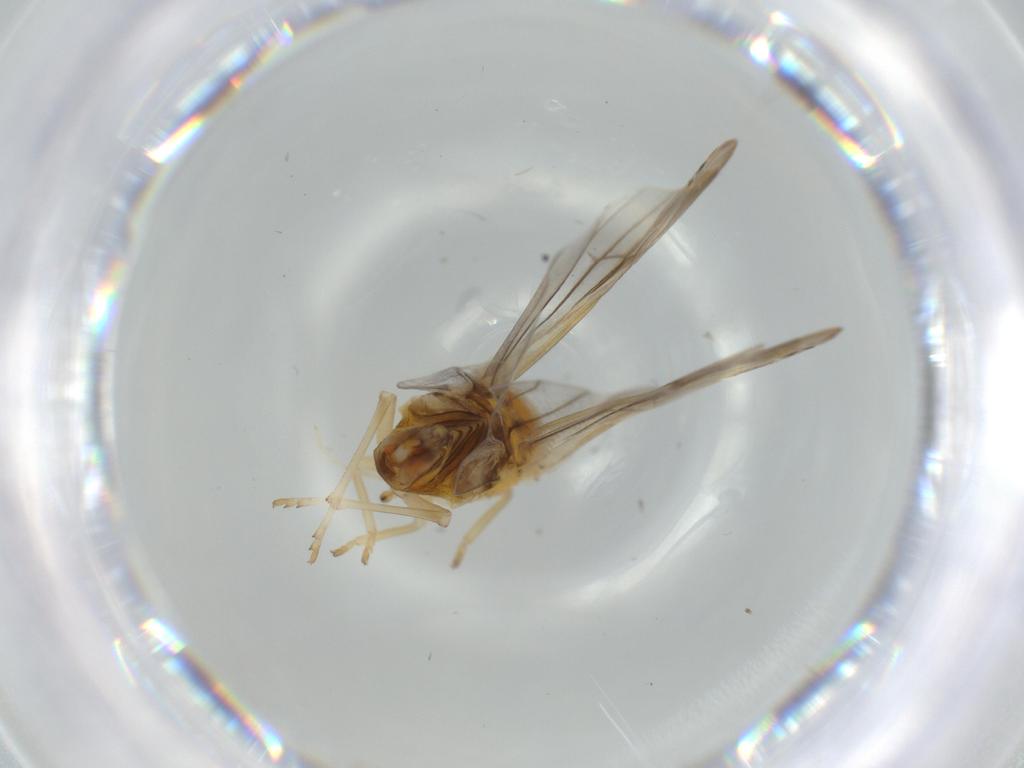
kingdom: Animalia
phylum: Arthropoda
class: Insecta
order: Hemiptera
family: Derbidae
